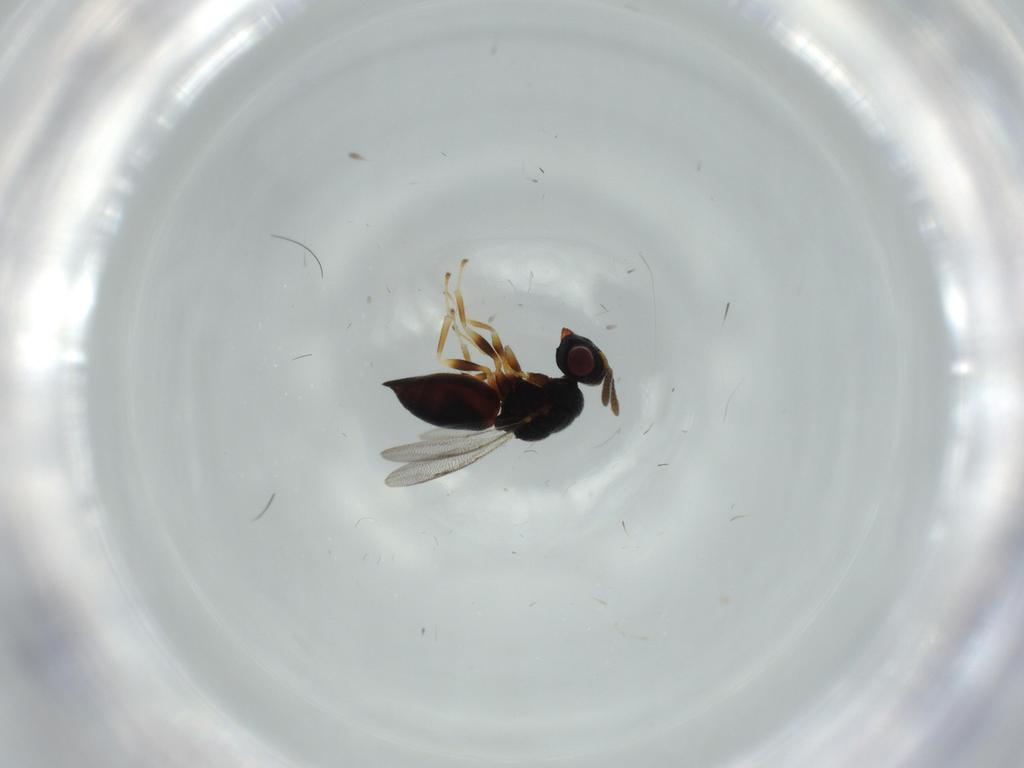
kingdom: Animalia
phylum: Arthropoda
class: Insecta
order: Hymenoptera
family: Eurytomidae
